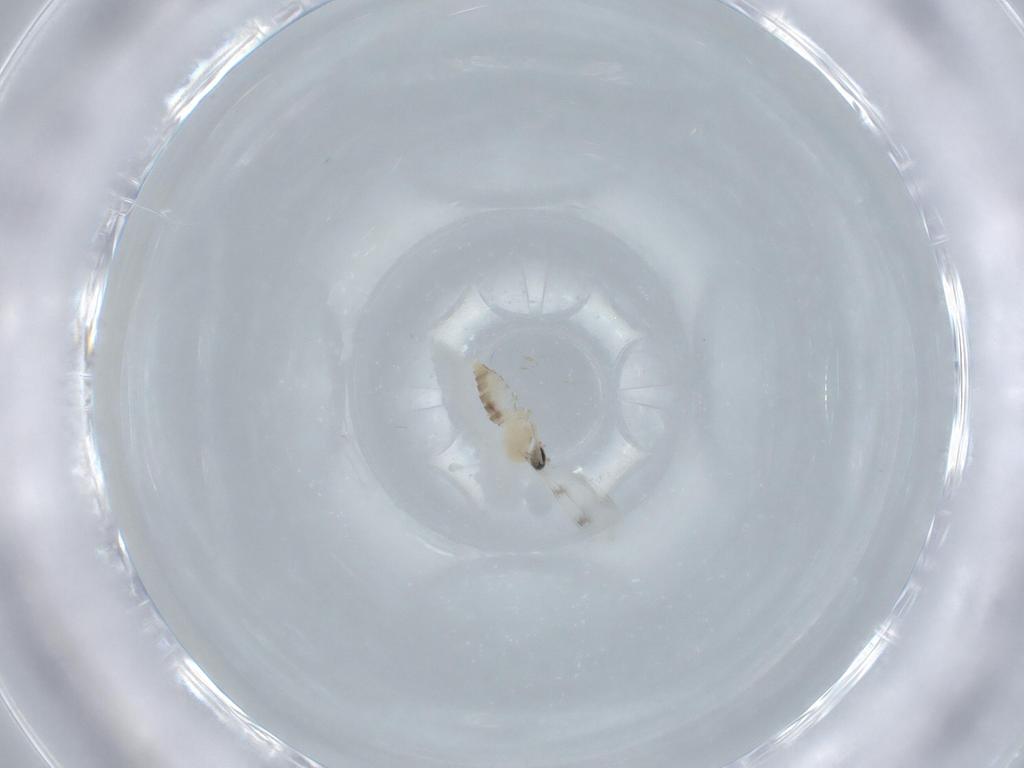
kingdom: Animalia
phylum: Arthropoda
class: Insecta
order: Diptera
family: Cecidomyiidae
